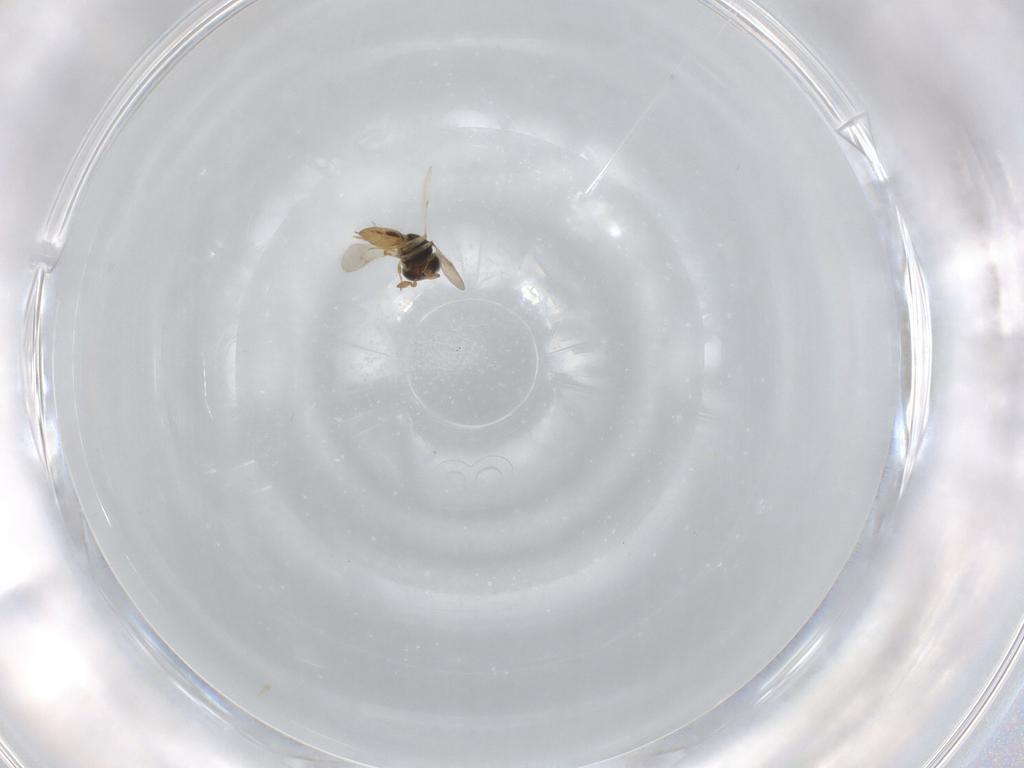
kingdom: Animalia
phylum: Arthropoda
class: Insecta
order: Hymenoptera
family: Scelionidae
